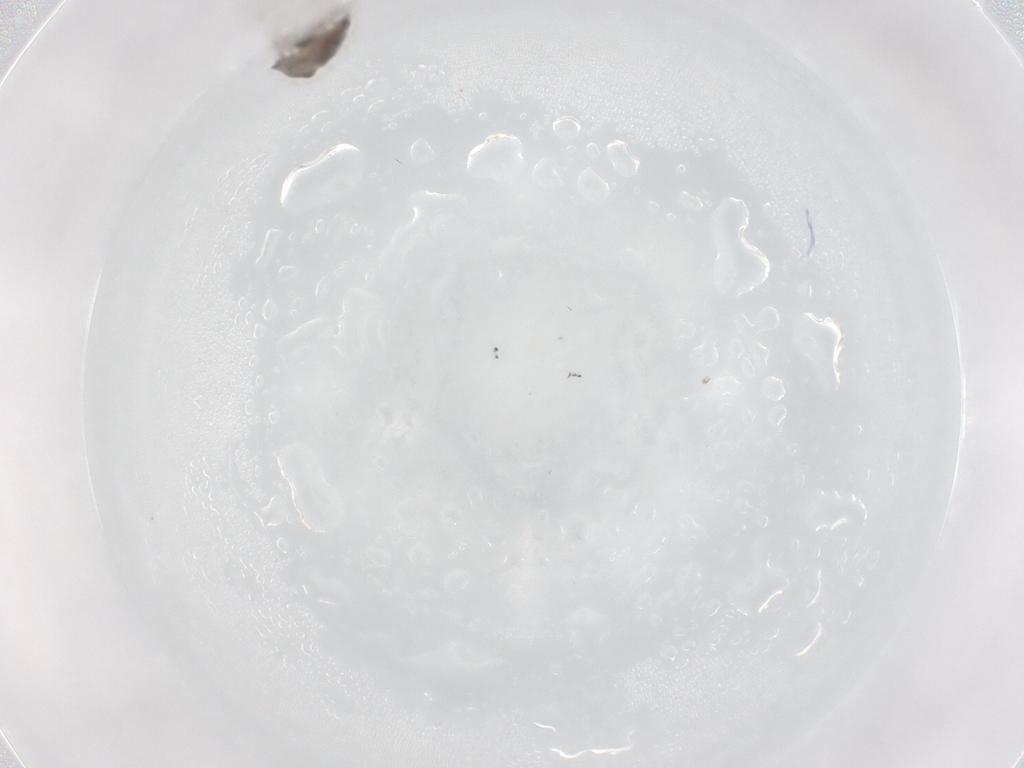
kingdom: Animalia
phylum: Arthropoda
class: Insecta
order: Diptera
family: Cecidomyiidae
